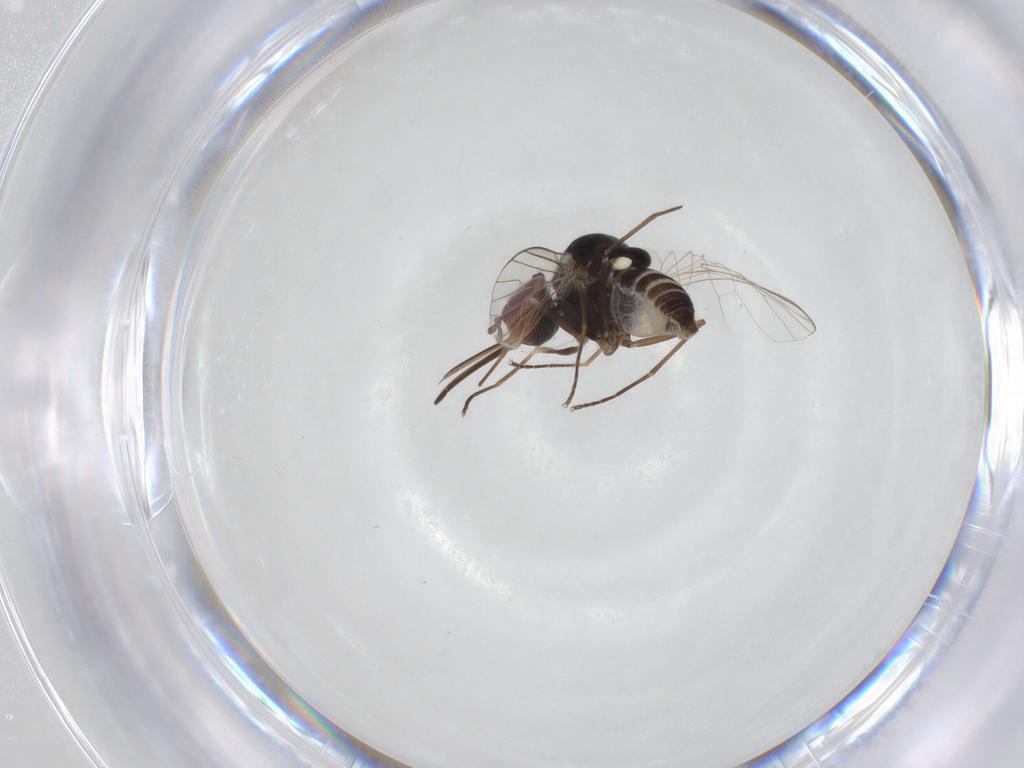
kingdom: Animalia
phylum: Arthropoda
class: Insecta
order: Diptera
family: Bombyliidae
